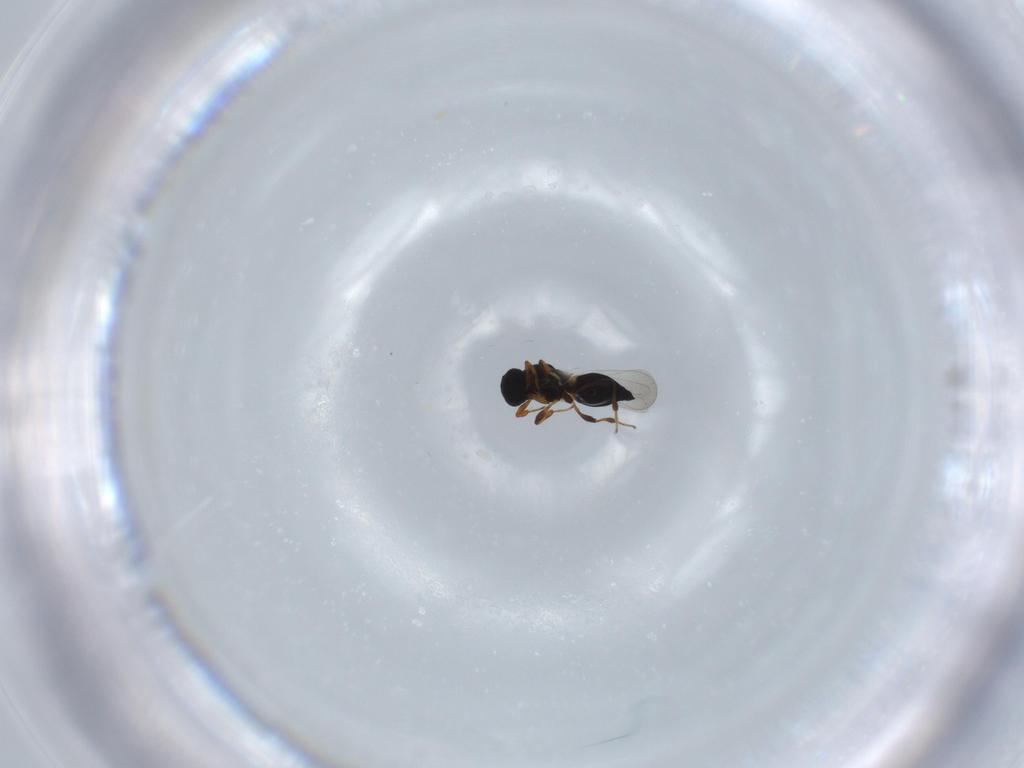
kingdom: Animalia
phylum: Arthropoda
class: Insecta
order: Hymenoptera
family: Platygastridae
